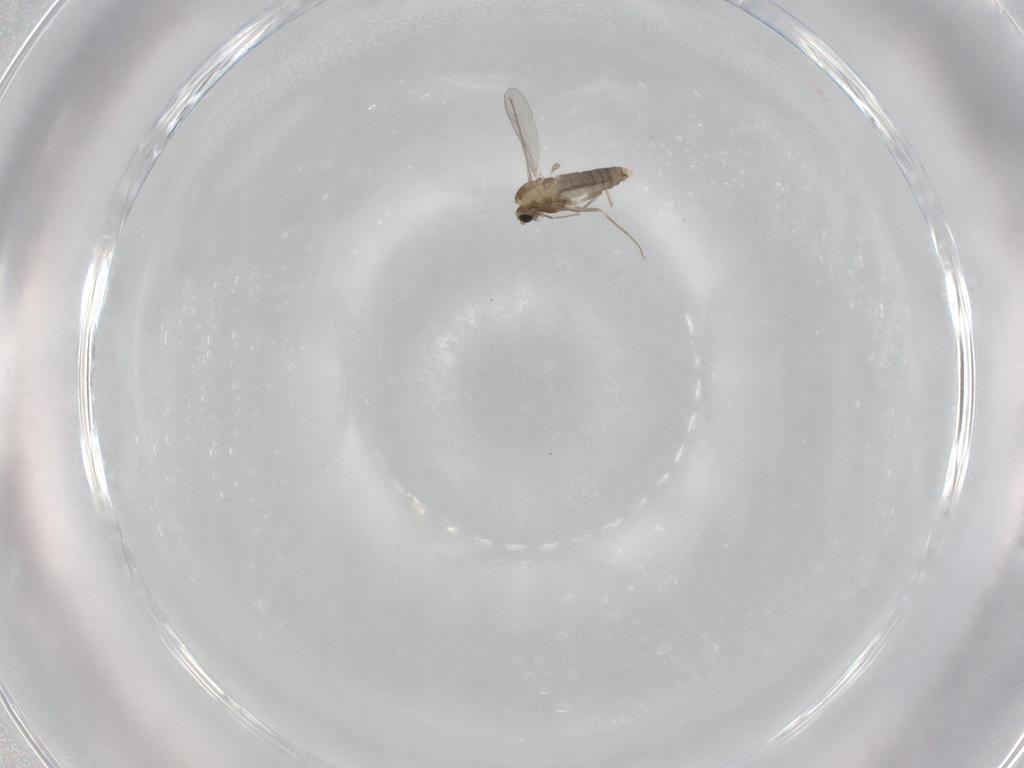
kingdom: Animalia
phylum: Arthropoda
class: Insecta
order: Diptera
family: Chironomidae
